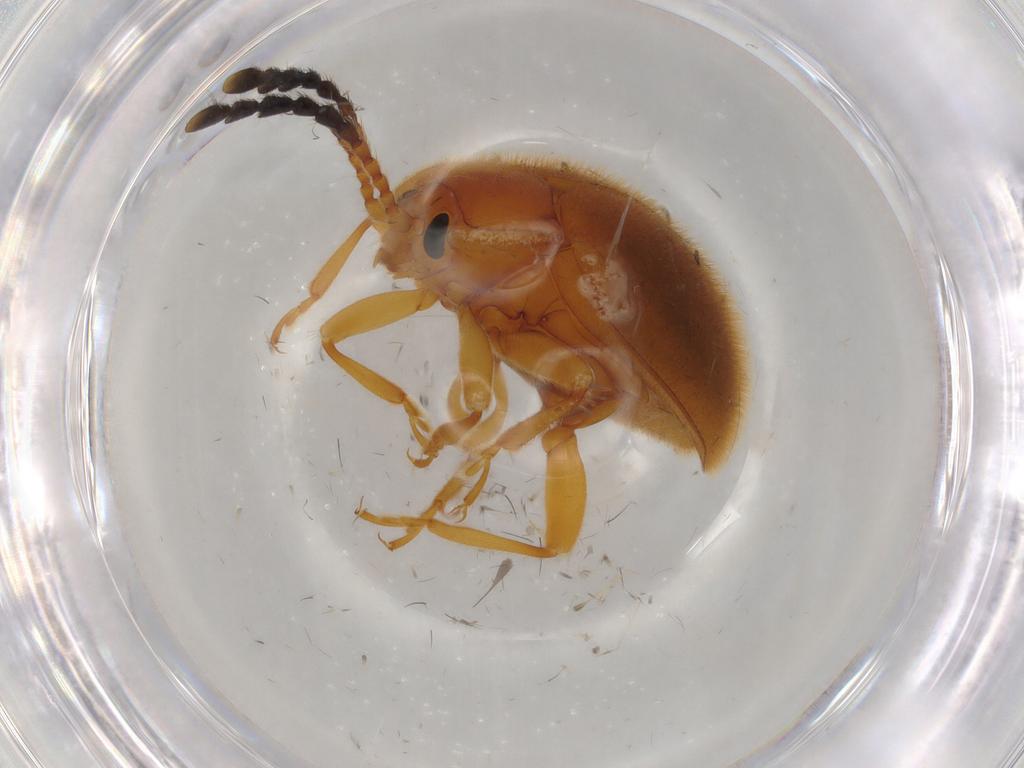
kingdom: Animalia
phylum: Arthropoda
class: Insecta
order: Coleoptera
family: Endomychidae
